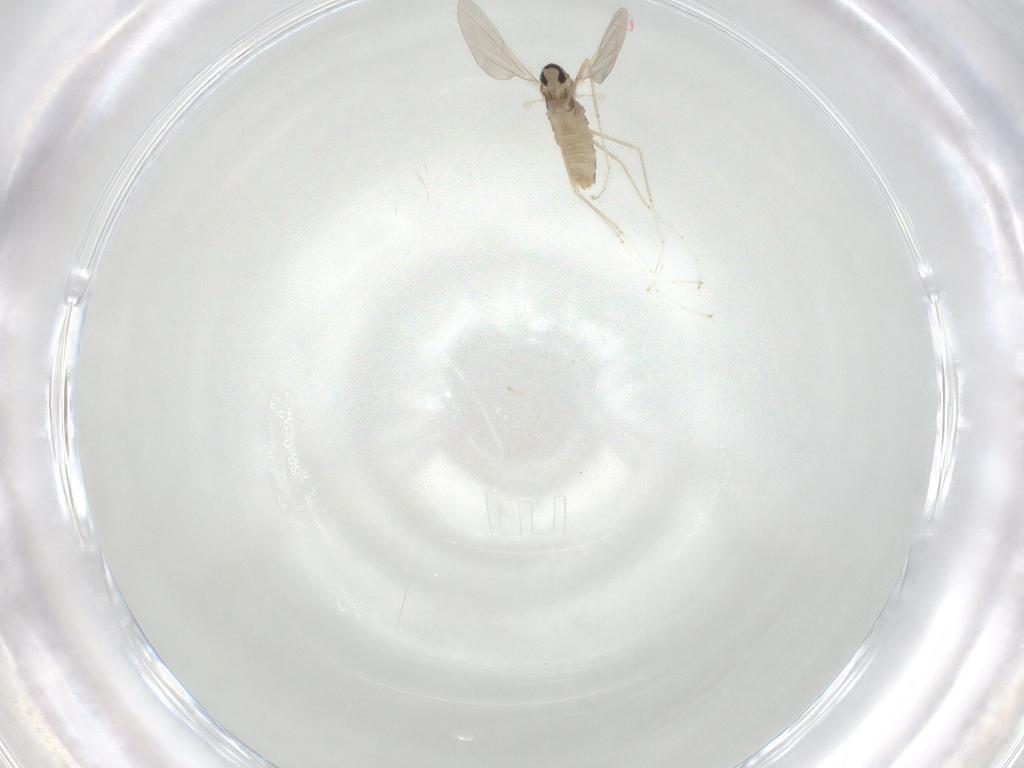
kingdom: Animalia
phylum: Arthropoda
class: Insecta
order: Diptera
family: Cecidomyiidae
